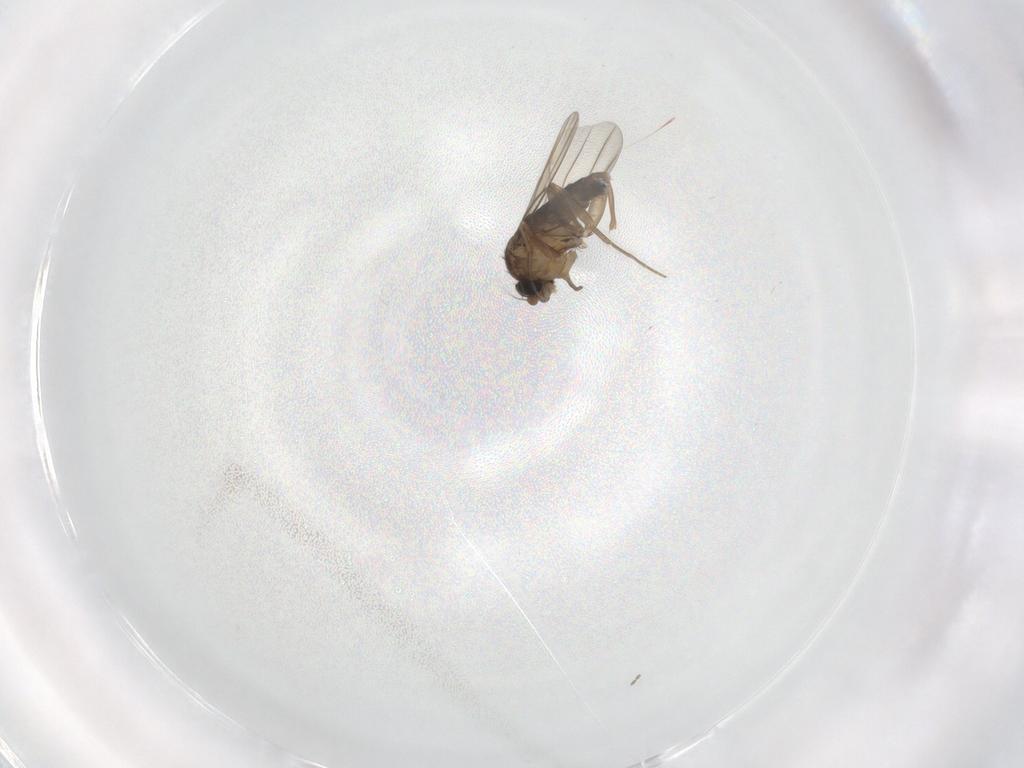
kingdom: Animalia
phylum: Arthropoda
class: Insecta
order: Diptera
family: Phoridae
